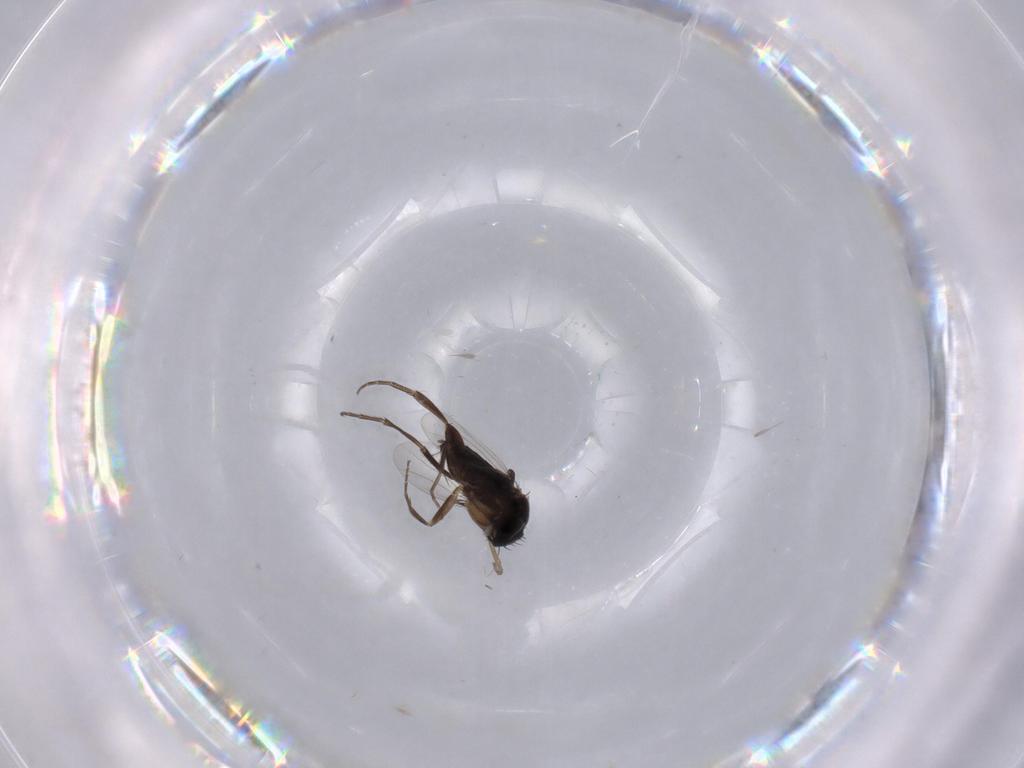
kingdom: Animalia
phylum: Arthropoda
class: Insecta
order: Diptera
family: Phoridae
